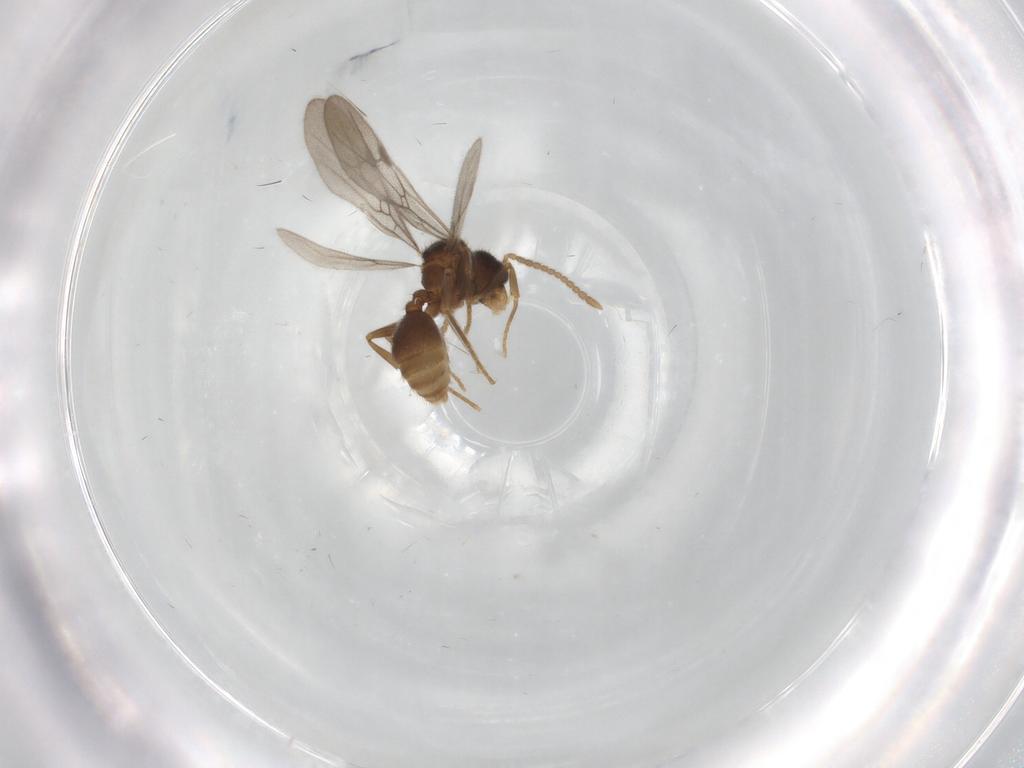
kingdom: Animalia
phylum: Arthropoda
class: Insecta
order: Hymenoptera
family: Formicidae
